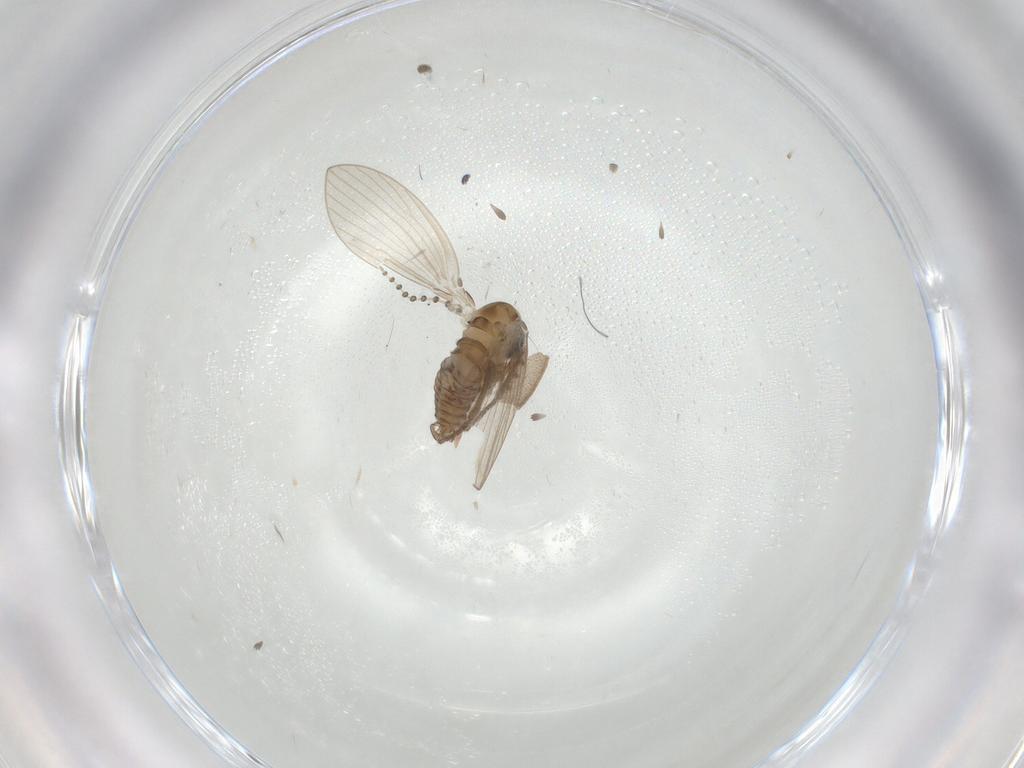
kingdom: Animalia
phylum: Arthropoda
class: Insecta
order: Diptera
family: Psychodidae
